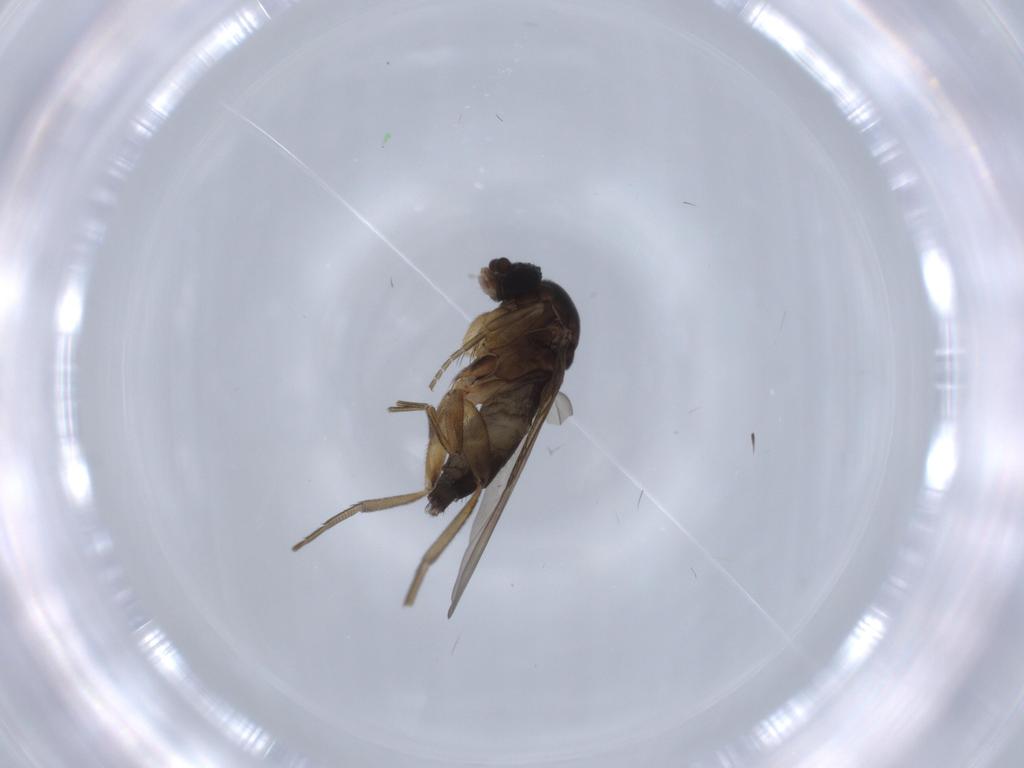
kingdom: Animalia
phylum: Arthropoda
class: Insecta
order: Diptera
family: Phoridae
